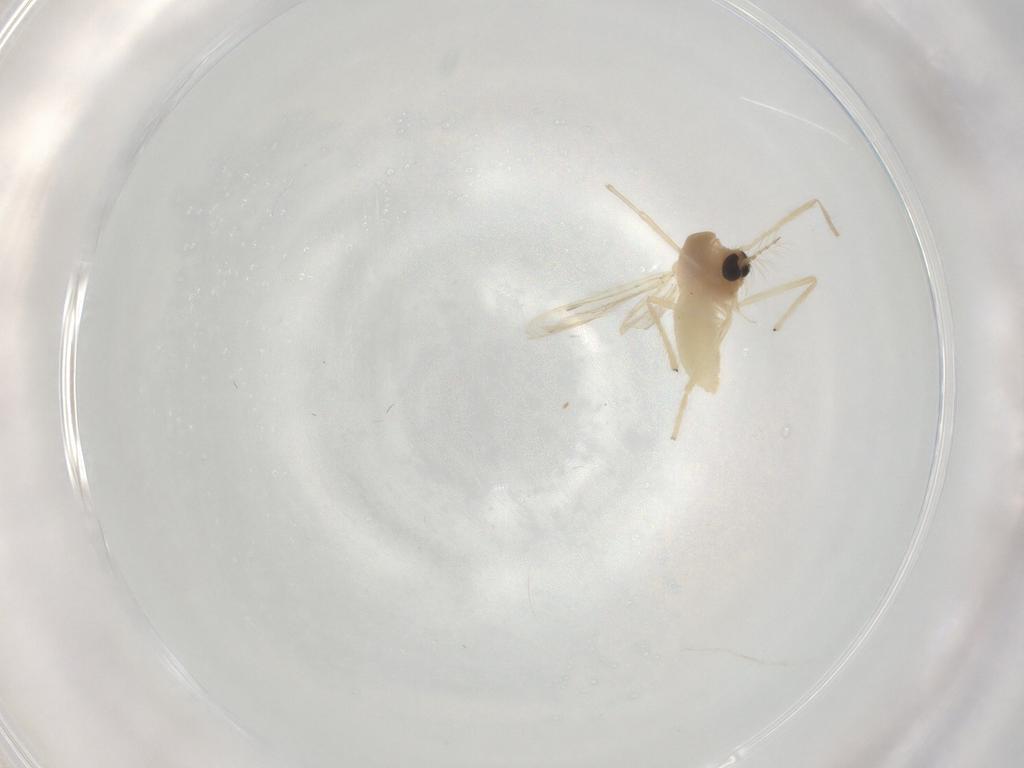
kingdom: Animalia
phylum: Arthropoda
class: Insecta
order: Diptera
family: Chironomidae
